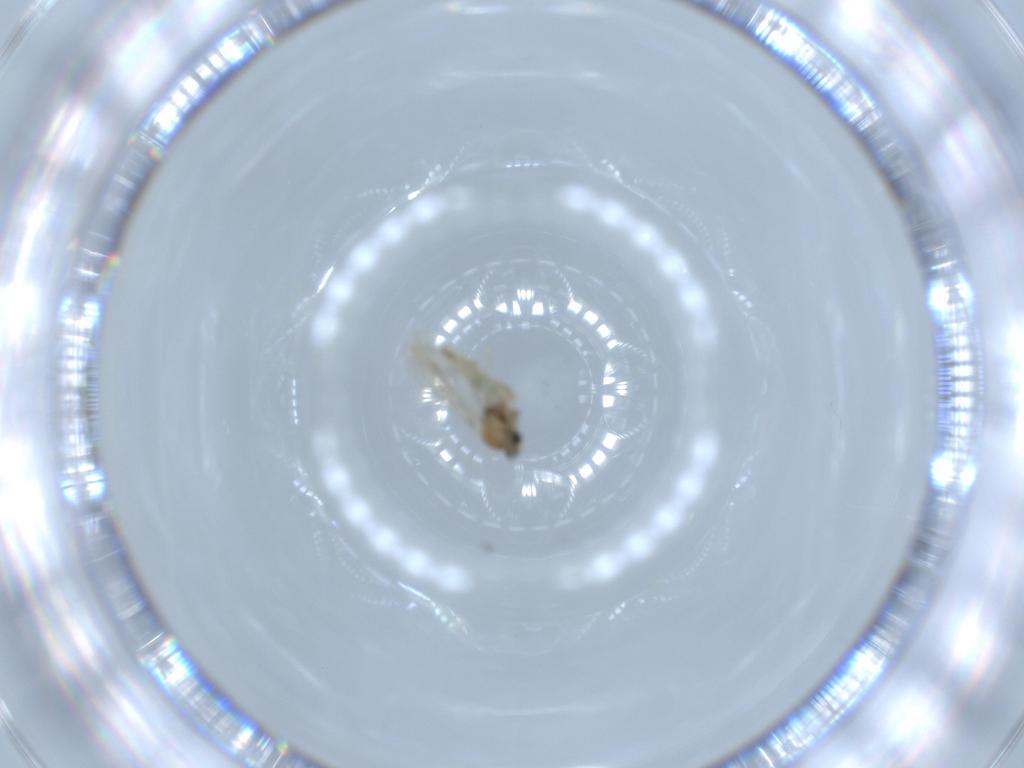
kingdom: Animalia
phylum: Arthropoda
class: Insecta
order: Diptera
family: Cecidomyiidae
